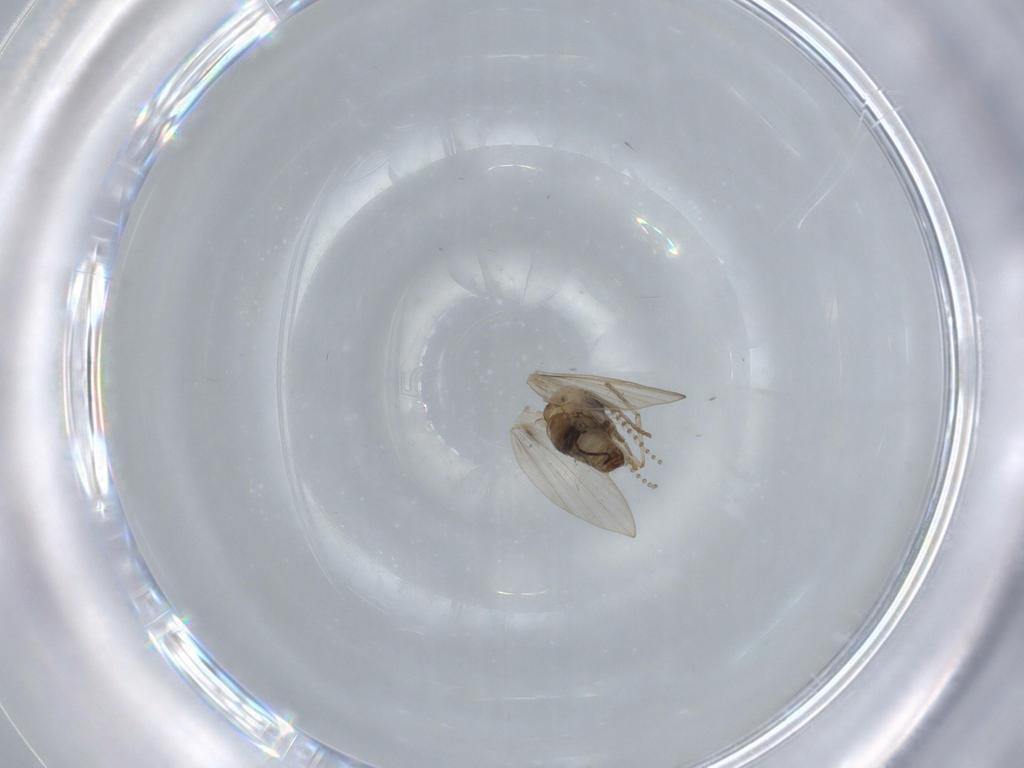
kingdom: Animalia
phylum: Arthropoda
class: Insecta
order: Diptera
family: Psychodidae
